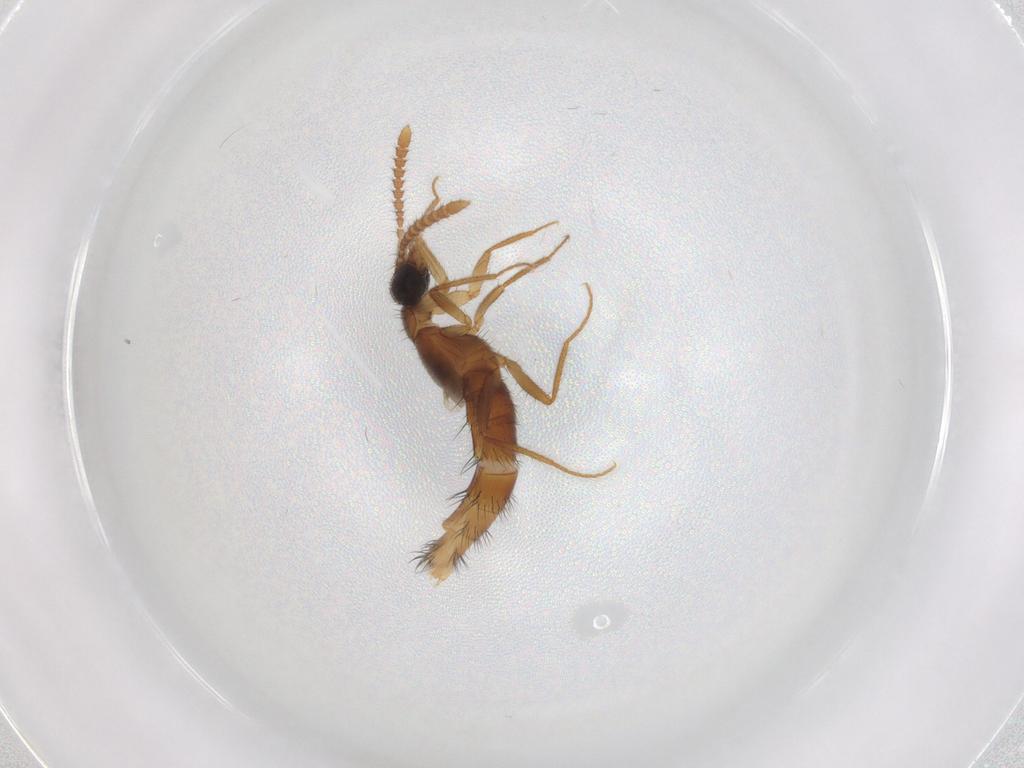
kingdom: Animalia
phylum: Arthropoda
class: Insecta
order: Coleoptera
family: Staphylinidae
